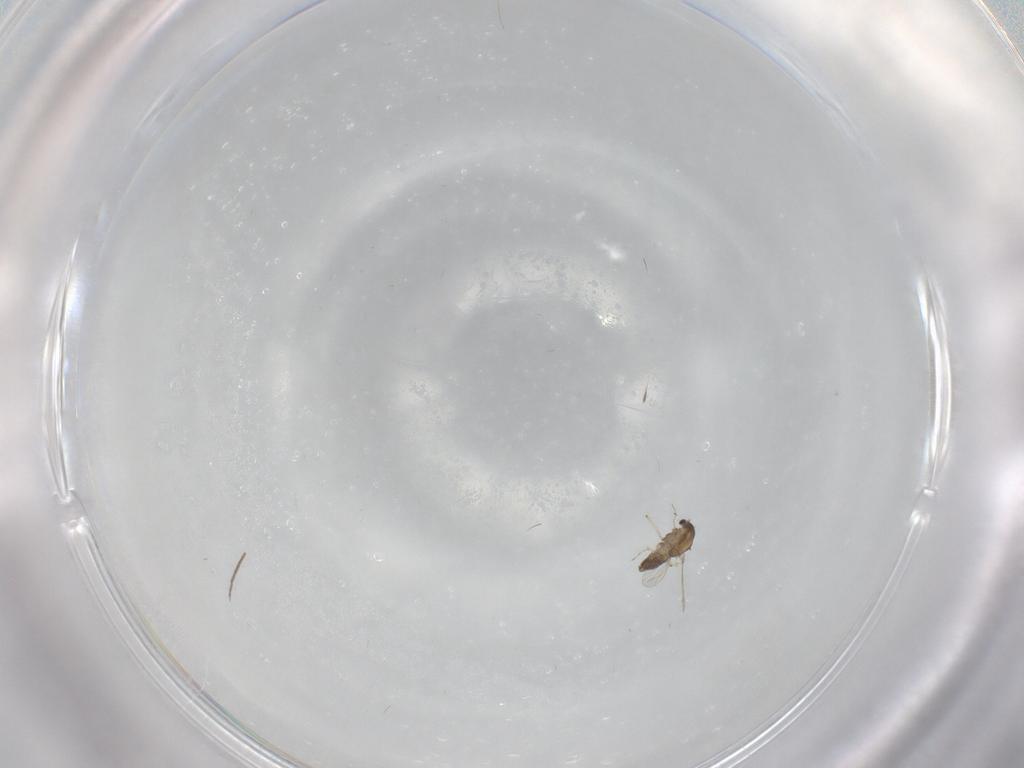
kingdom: Animalia
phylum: Arthropoda
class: Insecta
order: Diptera
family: Chironomidae
